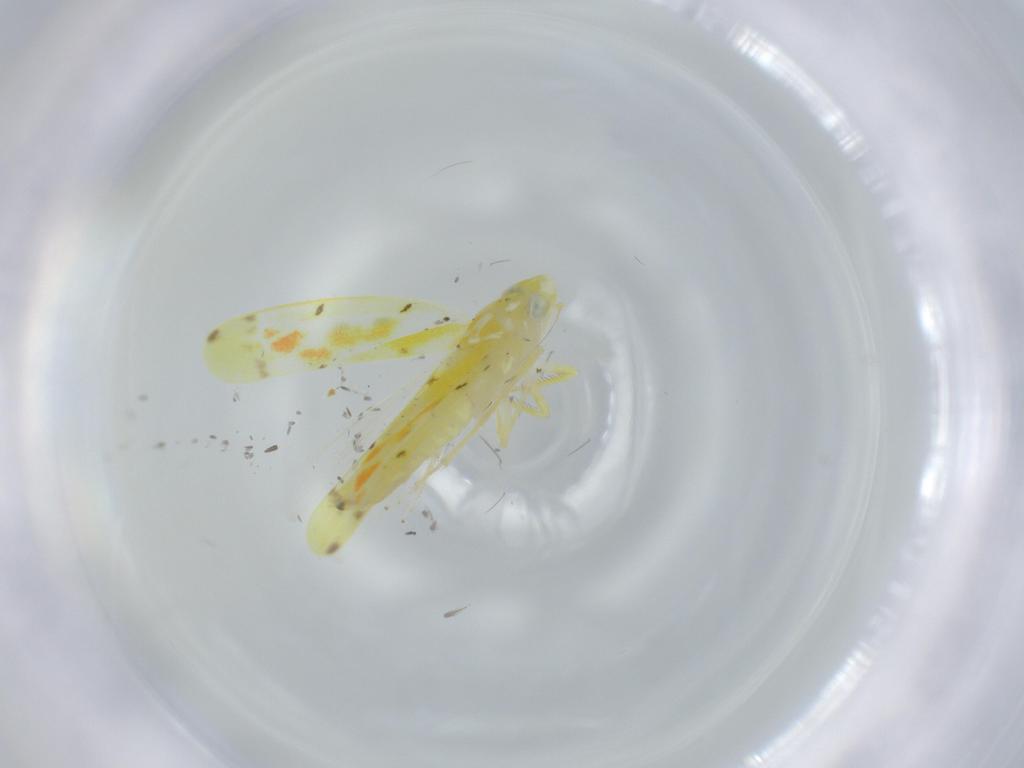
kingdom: Animalia
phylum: Arthropoda
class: Insecta
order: Hemiptera
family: Cicadellidae
